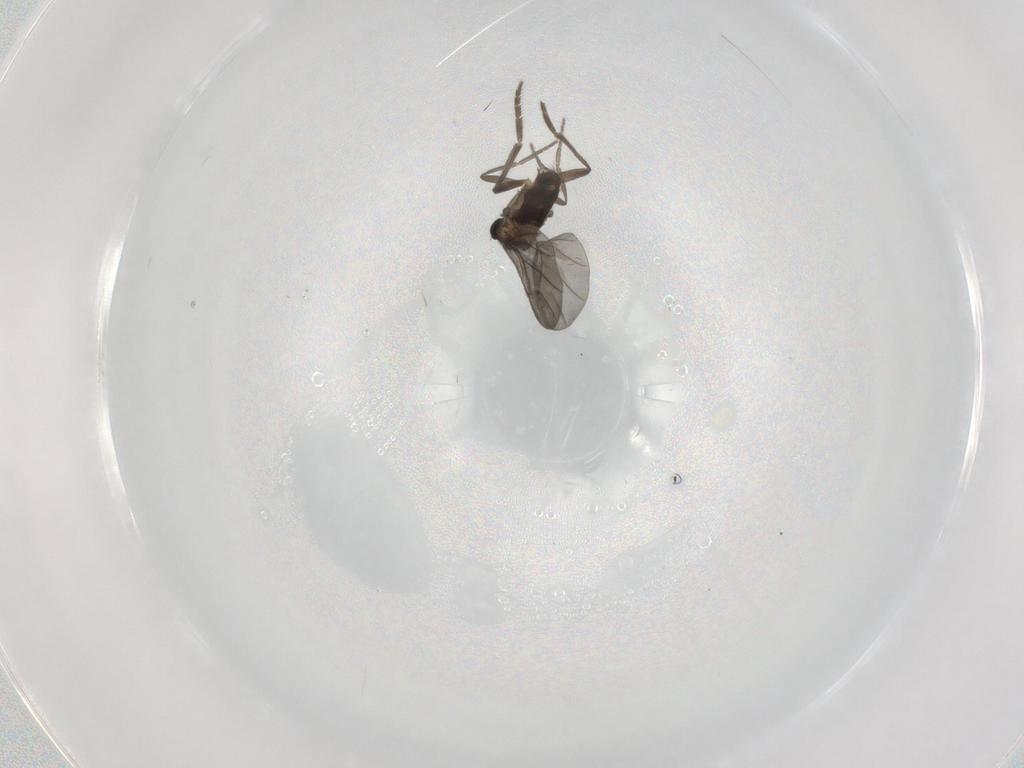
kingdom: Animalia
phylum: Arthropoda
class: Insecta
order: Diptera
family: Phoridae
